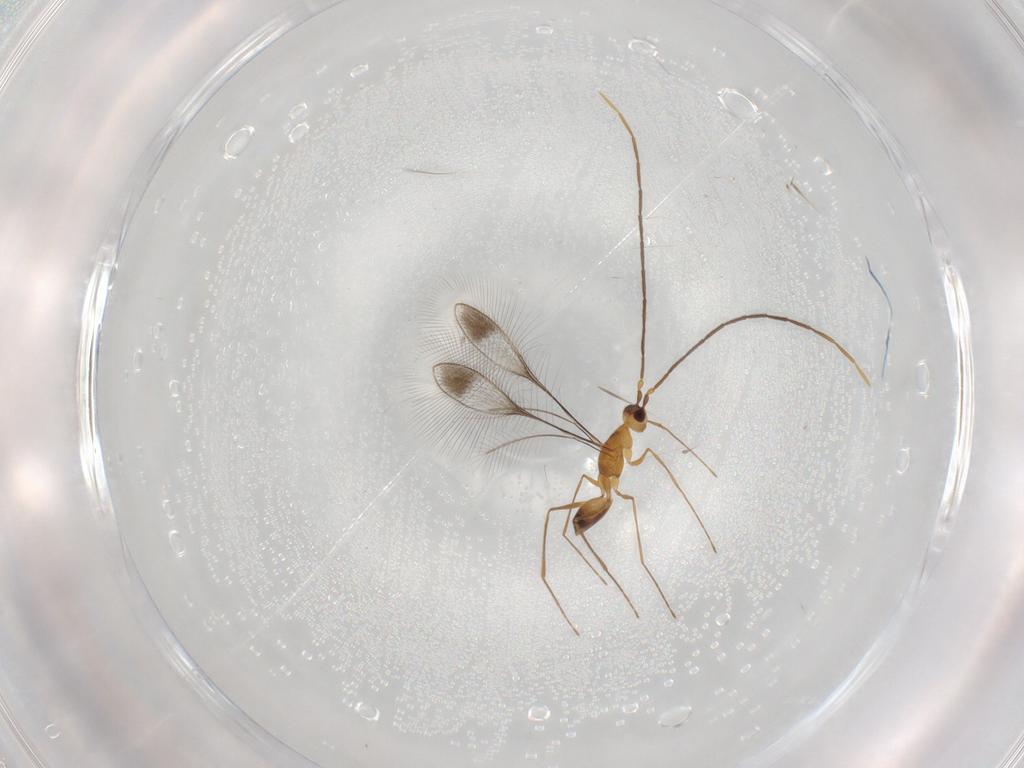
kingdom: Animalia
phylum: Arthropoda
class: Insecta
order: Hymenoptera
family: Mymaridae
